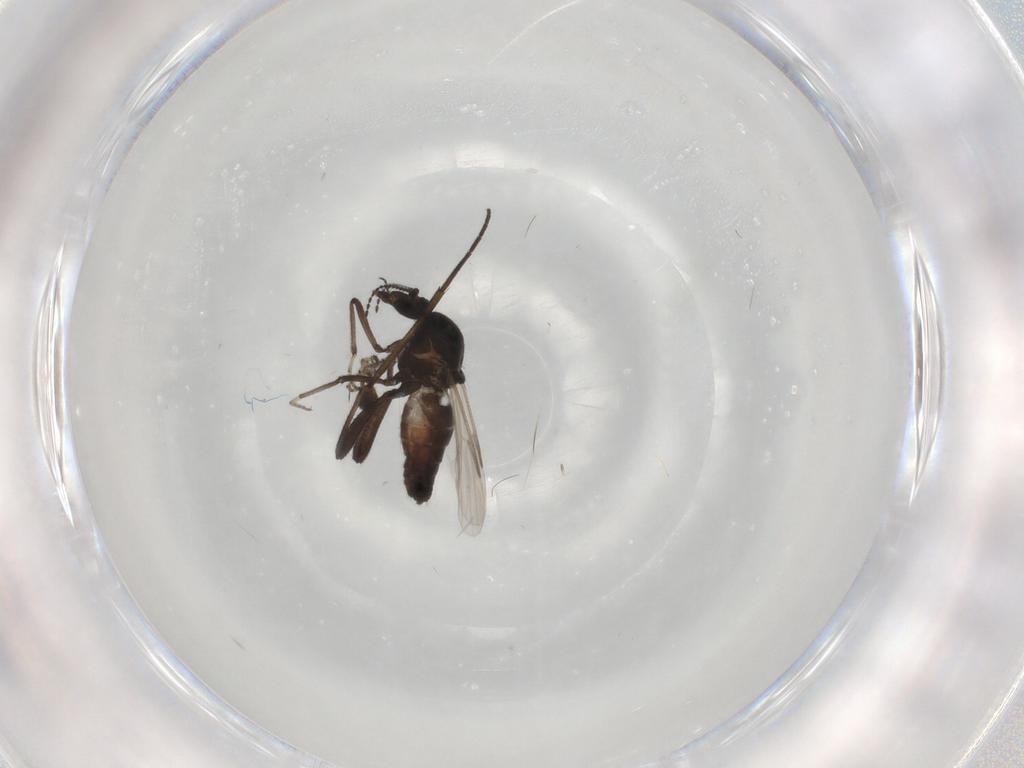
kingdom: Animalia
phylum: Arthropoda
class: Insecta
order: Diptera
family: Ceratopogonidae
